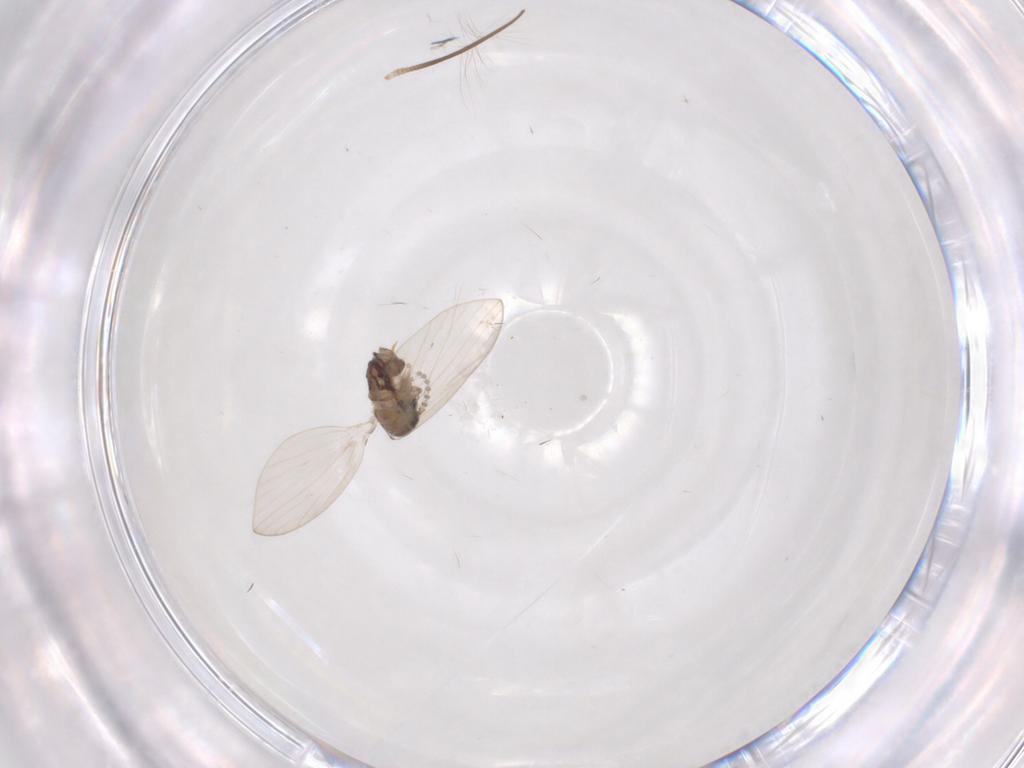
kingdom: Animalia
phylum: Arthropoda
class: Insecta
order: Diptera
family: Psychodidae
